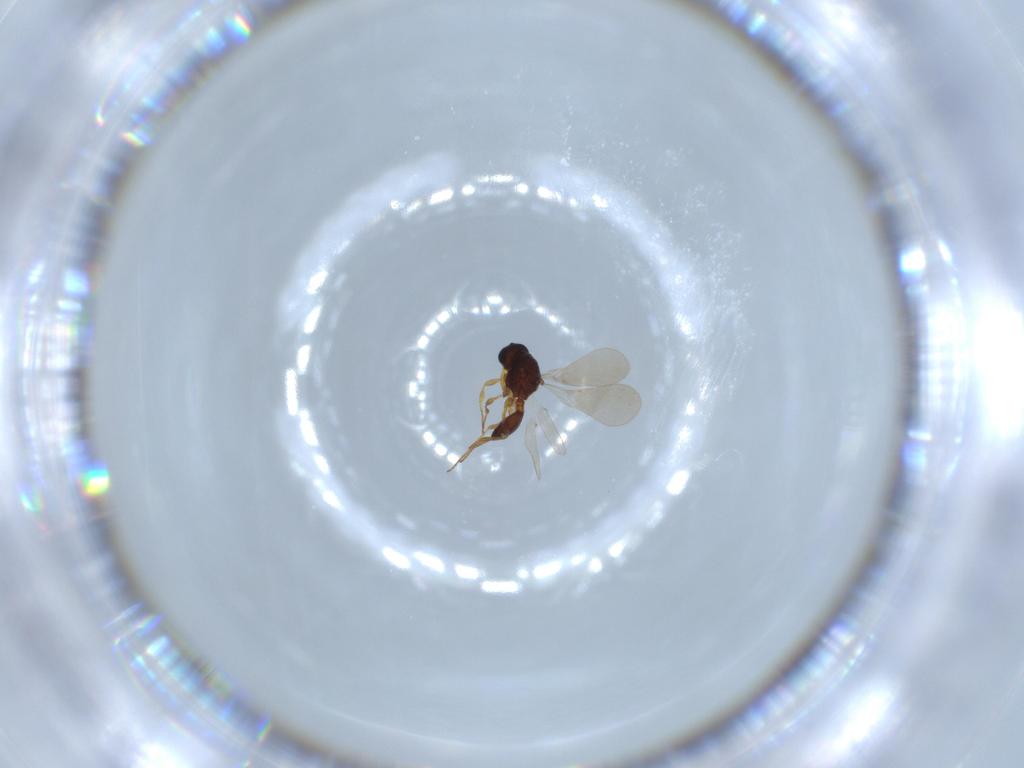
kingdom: Animalia
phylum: Arthropoda
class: Insecta
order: Hymenoptera
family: Platygastridae
